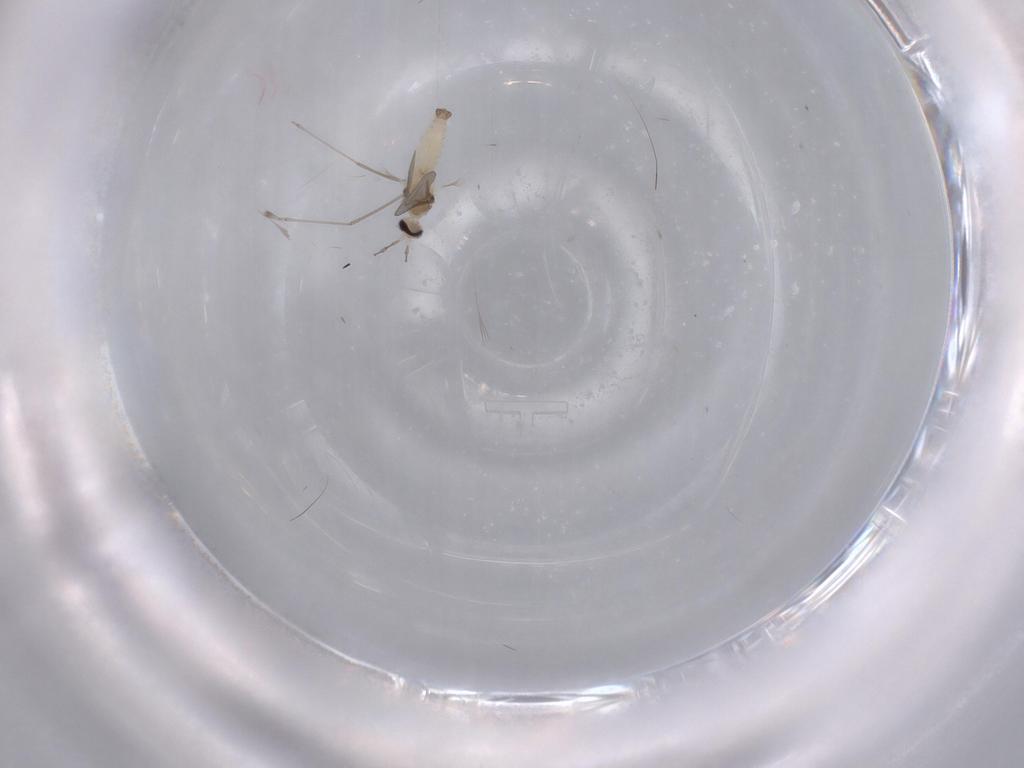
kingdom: Animalia
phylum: Arthropoda
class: Insecta
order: Diptera
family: Cecidomyiidae
